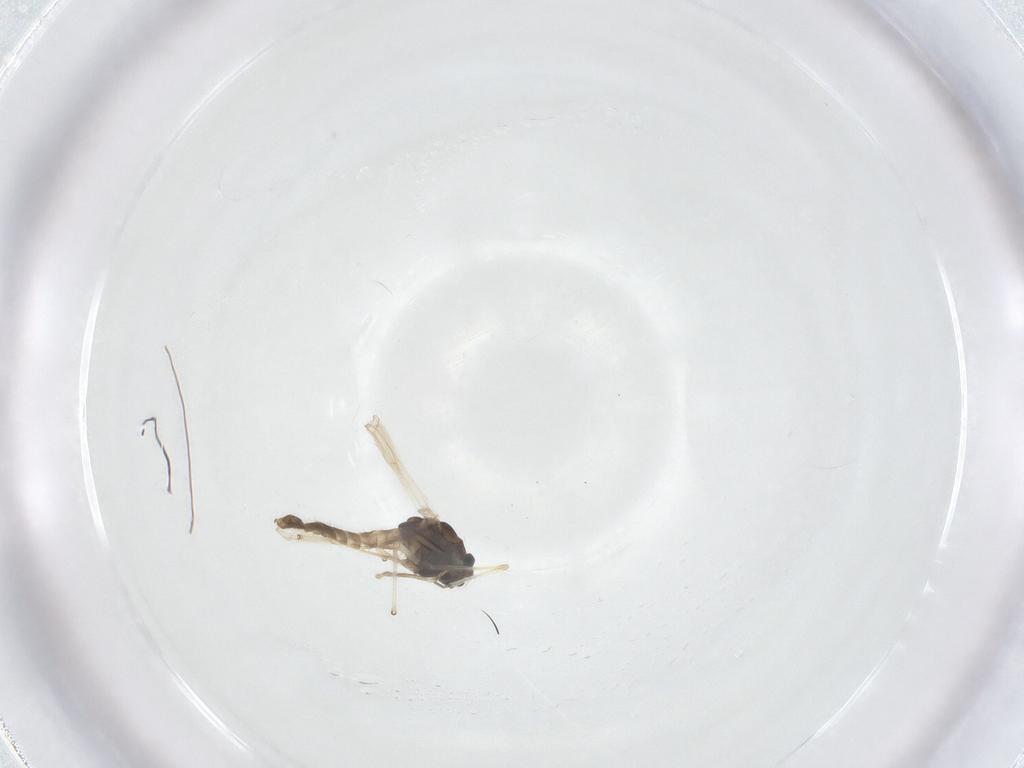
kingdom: Animalia
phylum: Arthropoda
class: Insecta
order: Diptera
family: Chironomidae
